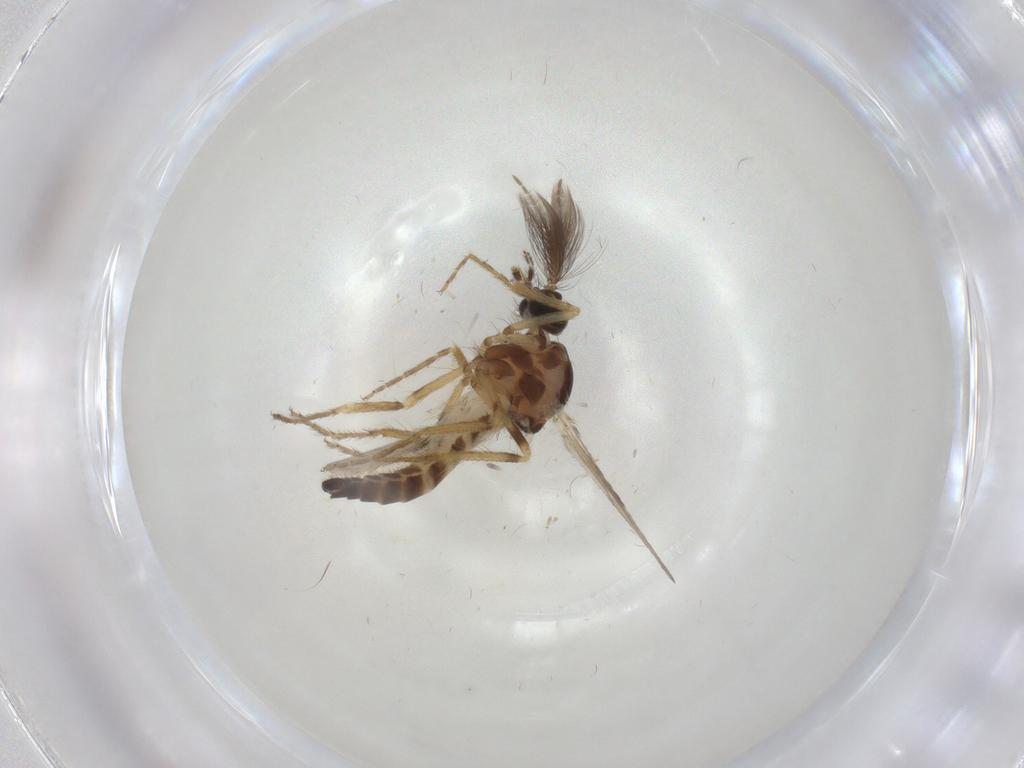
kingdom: Animalia
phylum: Arthropoda
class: Insecta
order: Diptera
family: Ceratopogonidae
